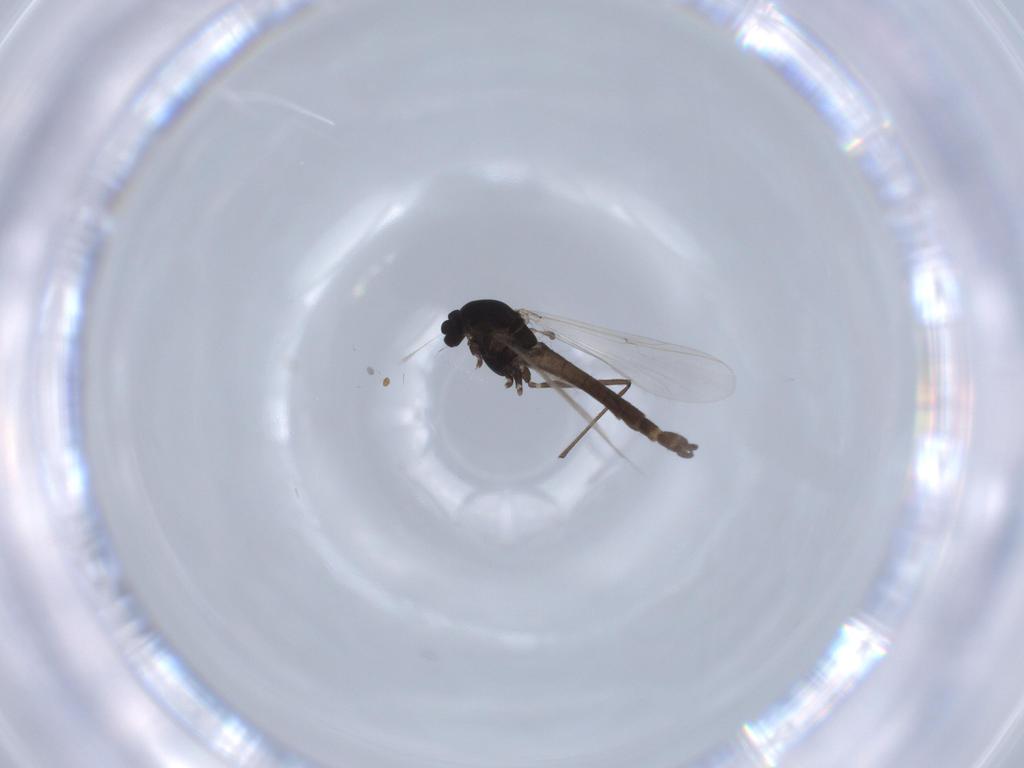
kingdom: Animalia
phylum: Arthropoda
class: Insecta
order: Diptera
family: Chironomidae
